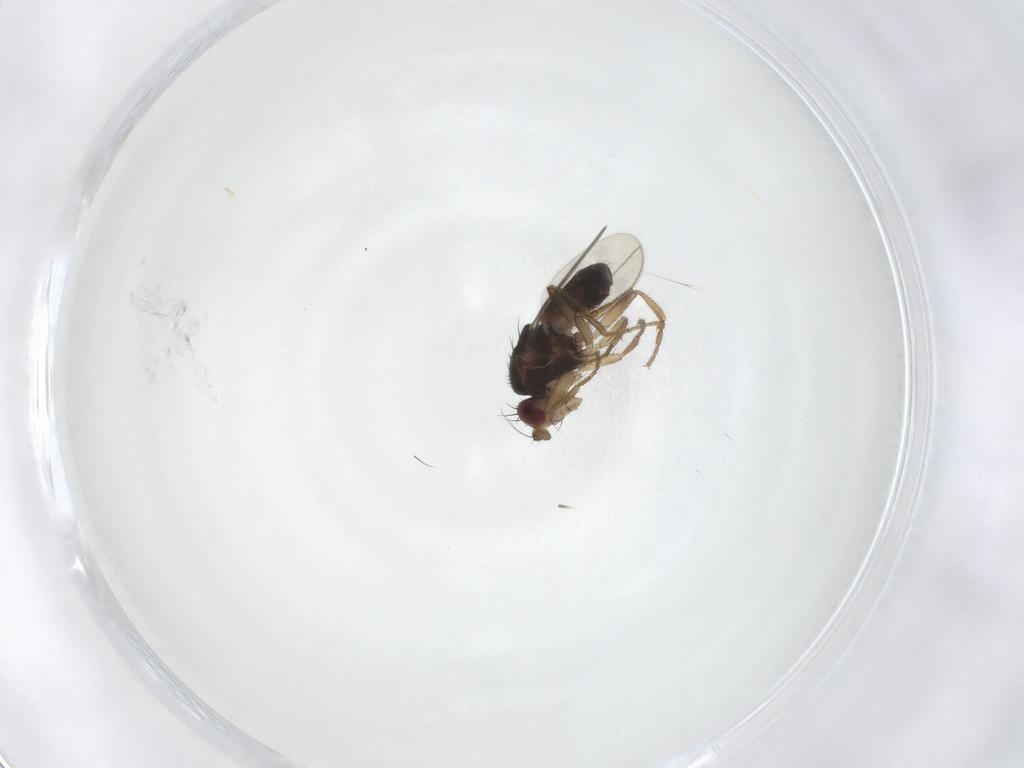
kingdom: Animalia
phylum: Arthropoda
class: Insecta
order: Diptera
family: Sphaeroceridae
